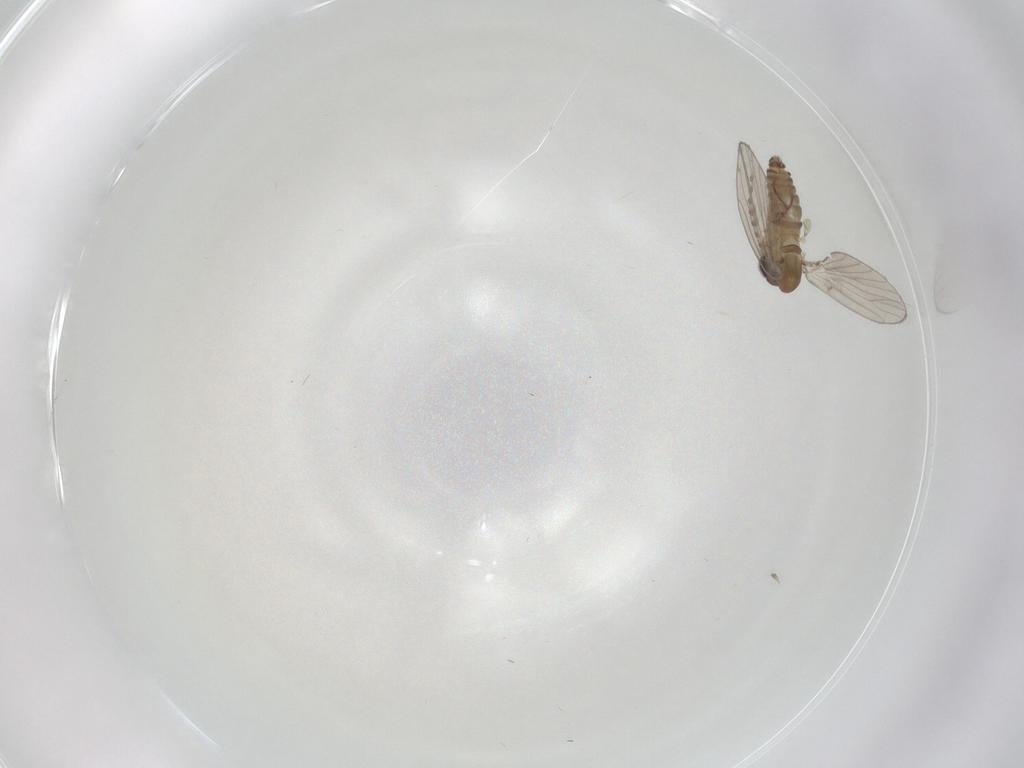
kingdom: Animalia
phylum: Arthropoda
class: Insecta
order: Diptera
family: Psychodidae
